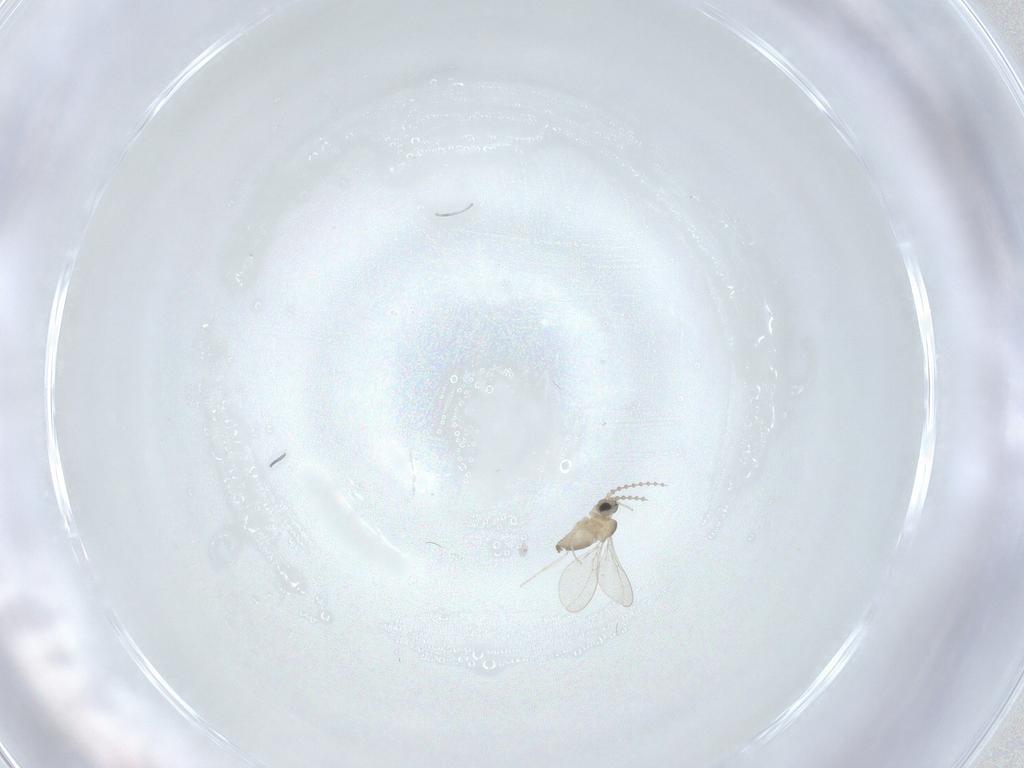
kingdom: Animalia
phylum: Arthropoda
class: Insecta
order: Diptera
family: Cecidomyiidae
